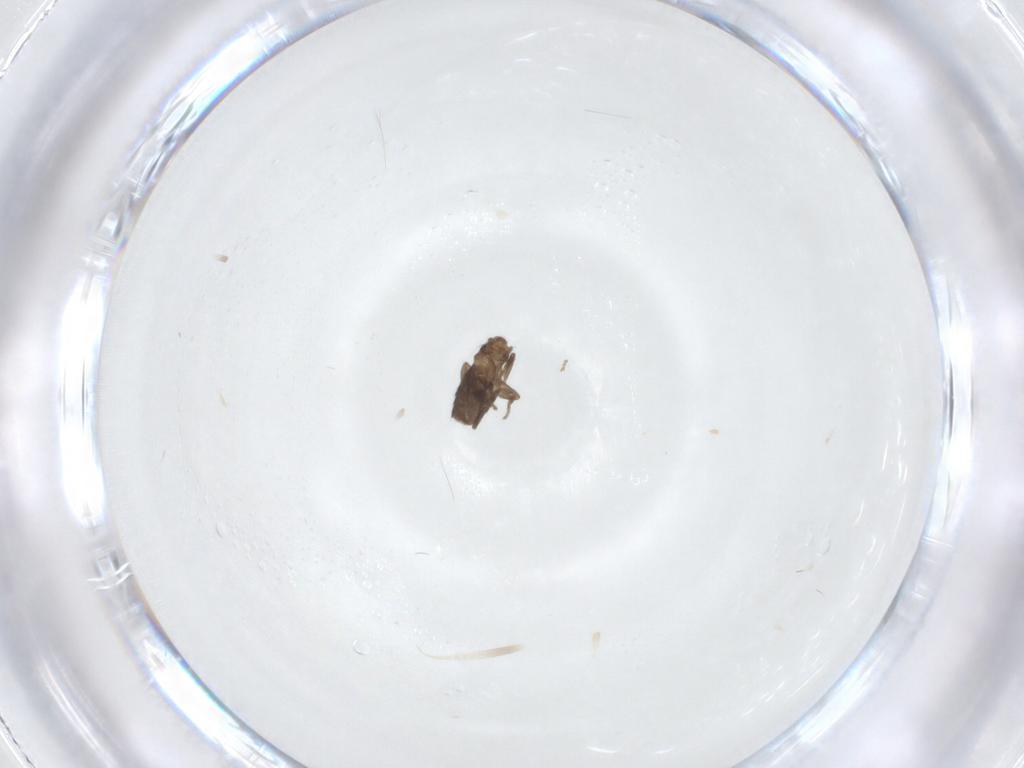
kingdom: Animalia
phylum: Arthropoda
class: Insecta
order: Diptera
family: Phoridae
